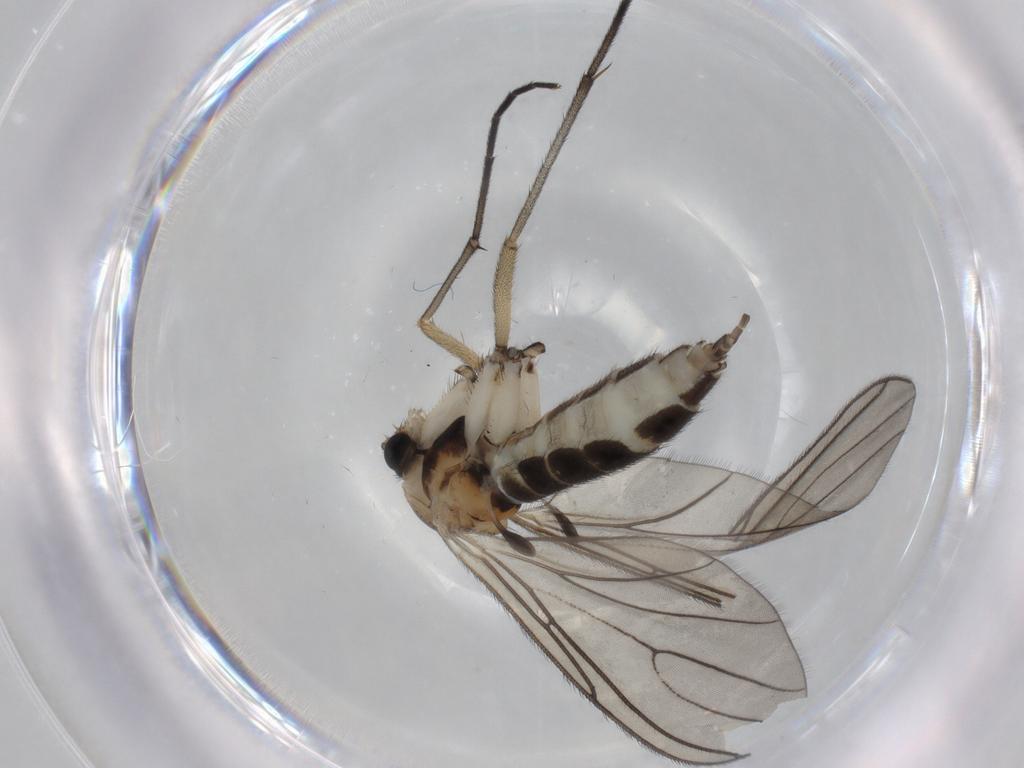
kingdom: Animalia
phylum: Arthropoda
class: Insecta
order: Diptera
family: Sciaridae
